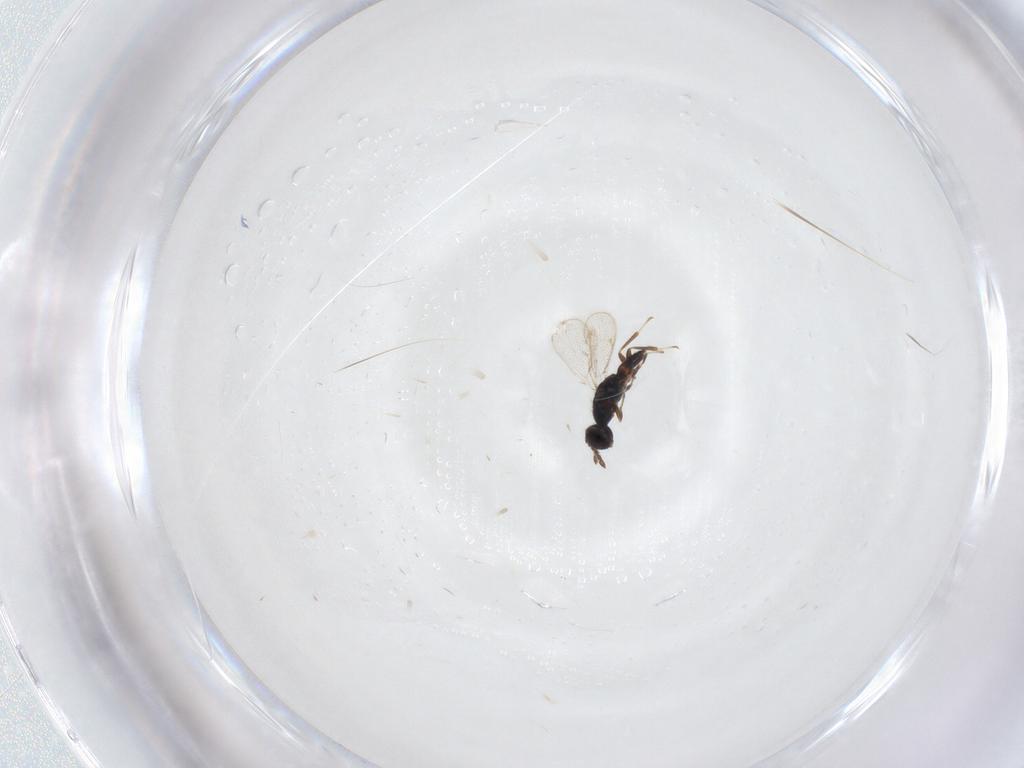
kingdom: Animalia
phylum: Arthropoda
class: Insecta
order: Hymenoptera
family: Eulophidae
